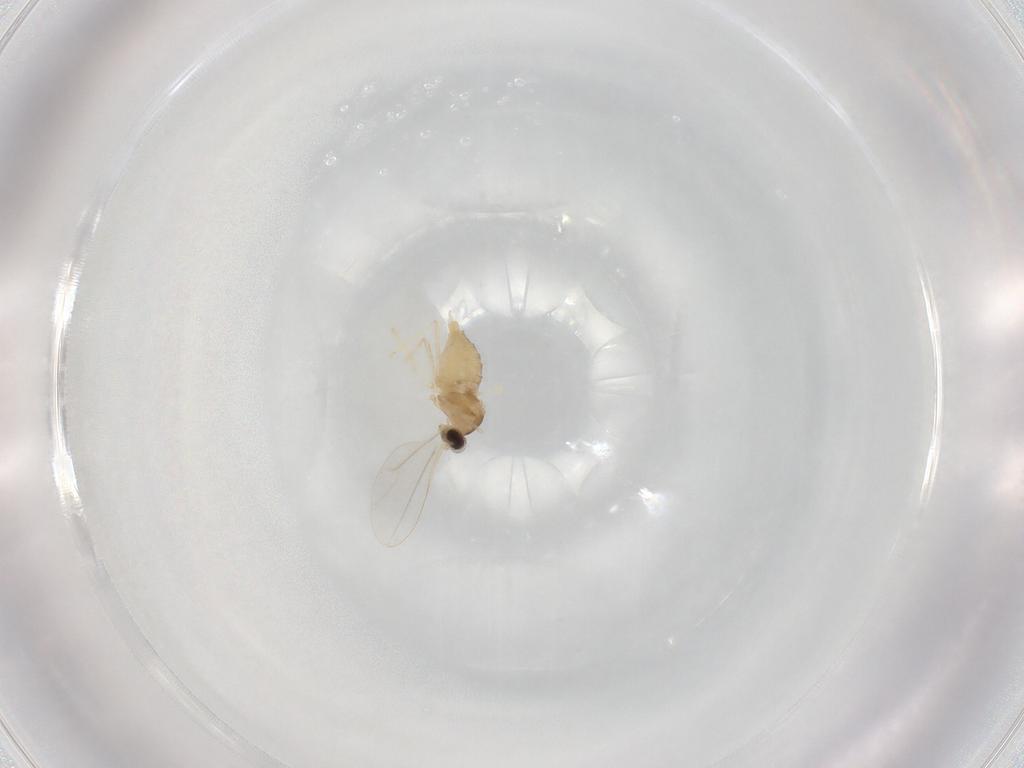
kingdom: Animalia
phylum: Arthropoda
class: Insecta
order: Diptera
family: Cecidomyiidae
